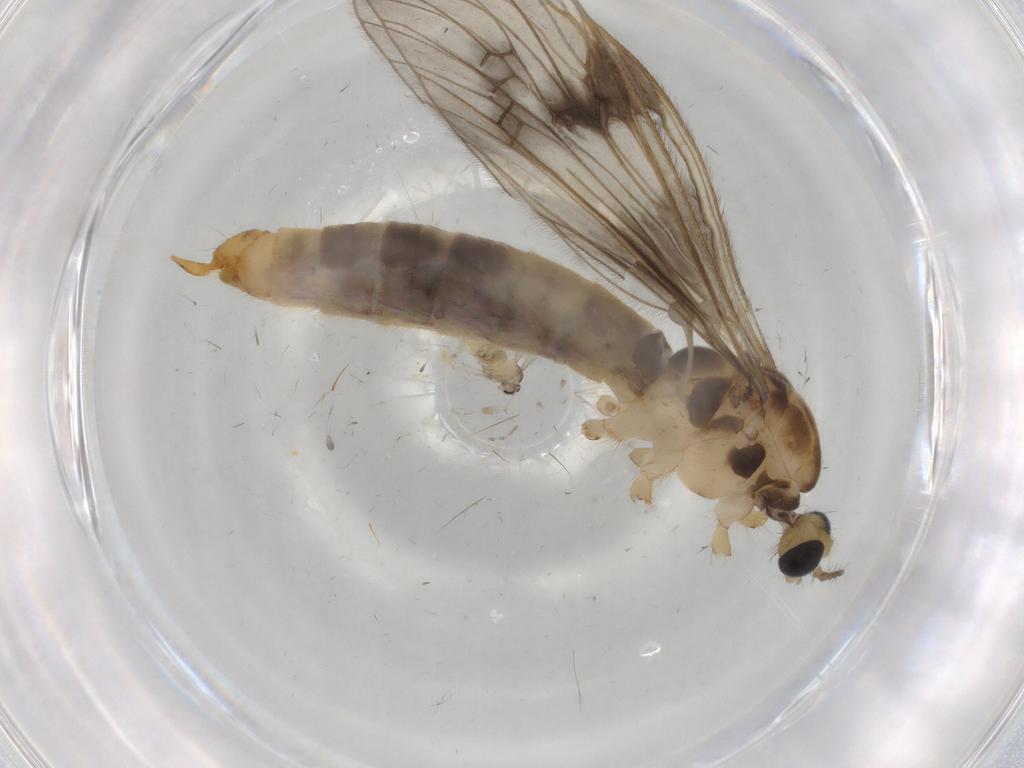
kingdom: Animalia
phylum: Arthropoda
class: Insecta
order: Diptera
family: Limoniidae
